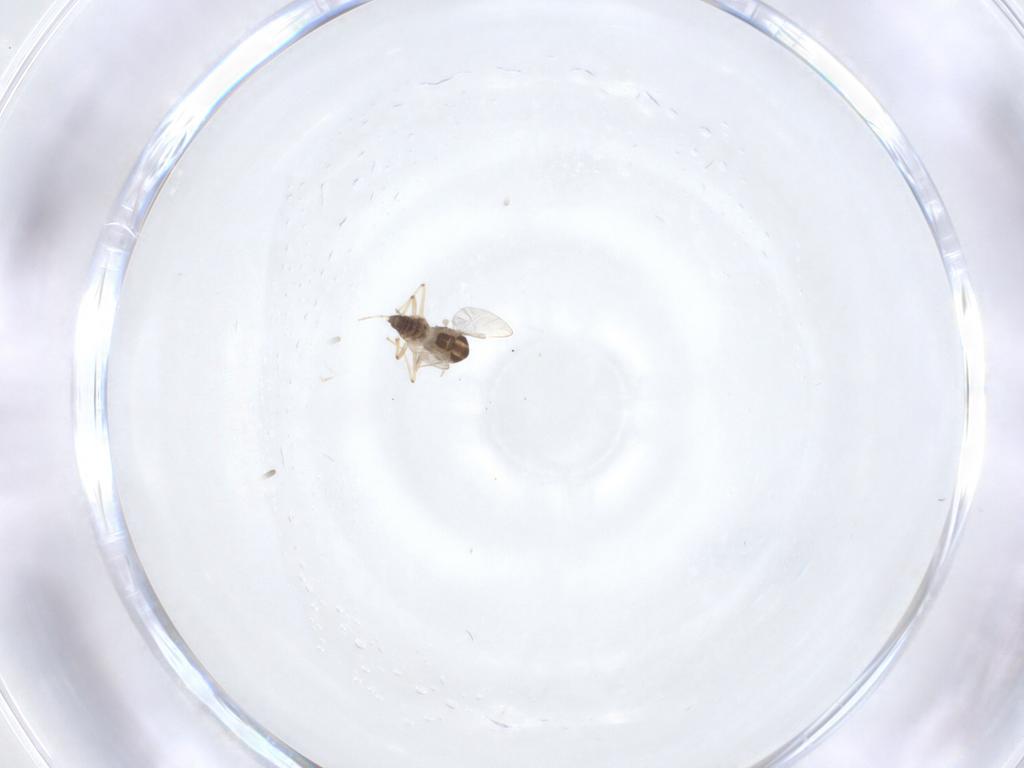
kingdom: Animalia
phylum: Arthropoda
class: Insecta
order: Diptera
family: Chironomidae
